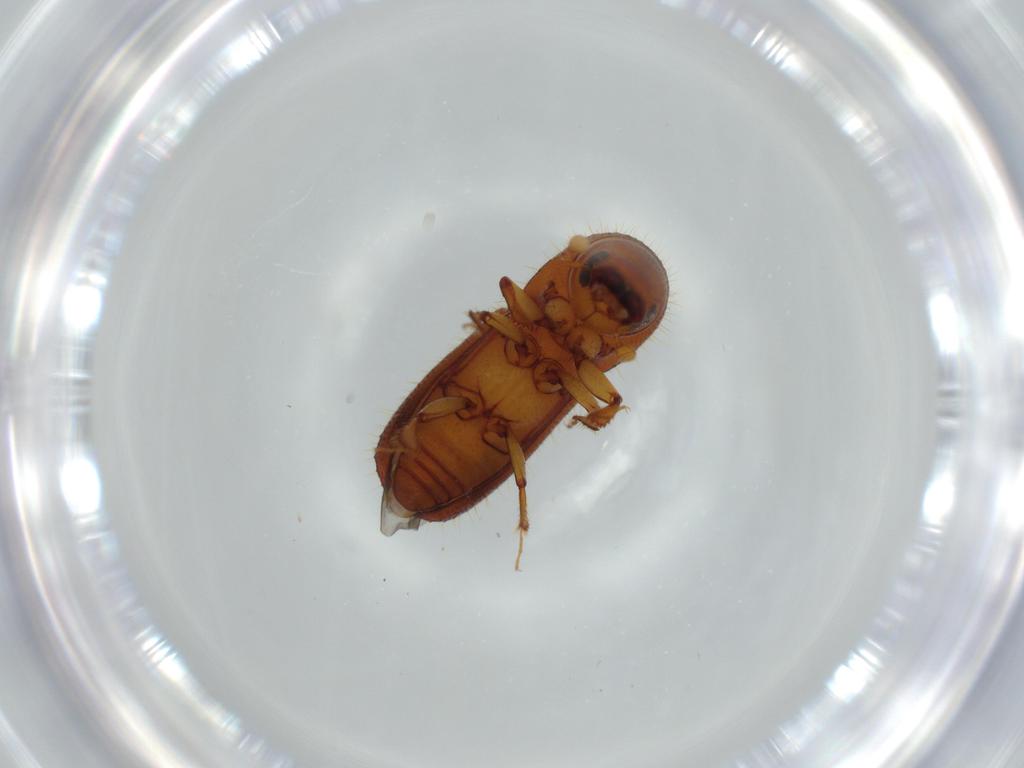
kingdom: Animalia
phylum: Arthropoda
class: Insecta
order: Coleoptera
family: Curculionidae
